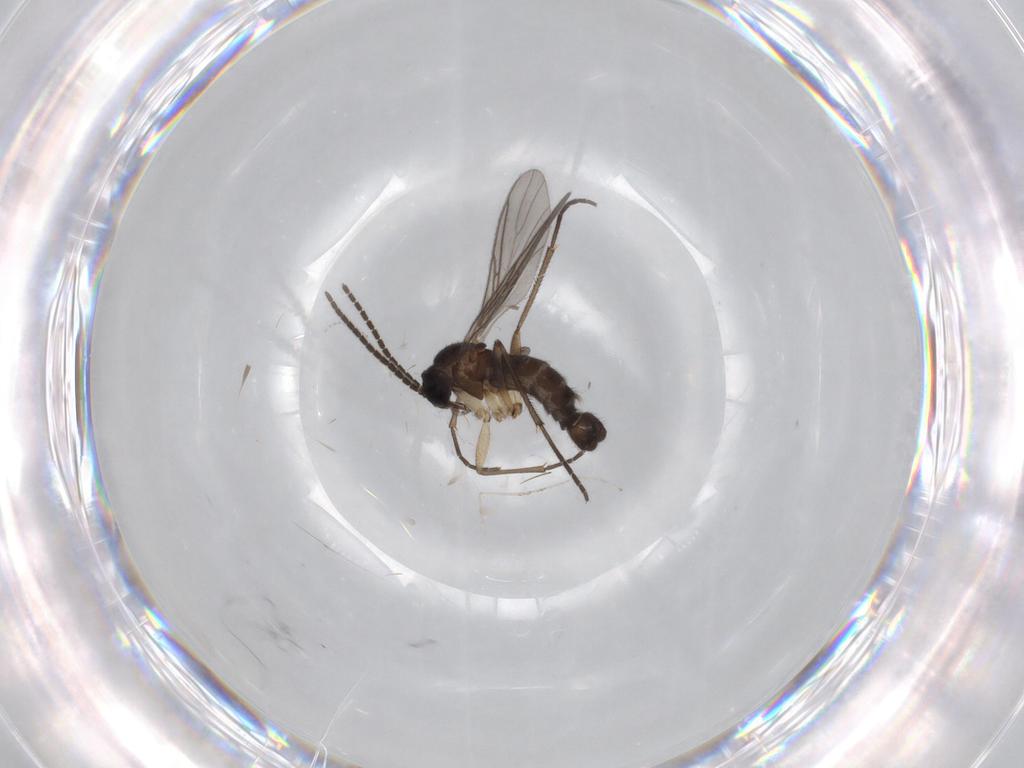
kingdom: Animalia
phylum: Arthropoda
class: Insecta
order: Diptera
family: Sciaridae
